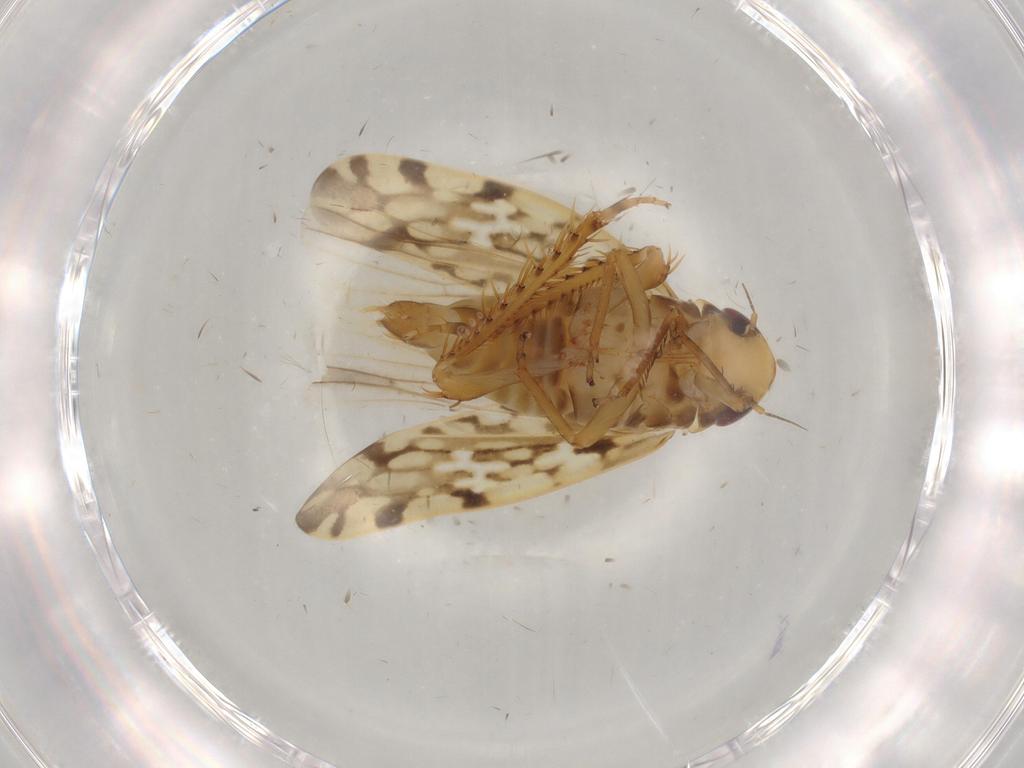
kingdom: Animalia
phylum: Arthropoda
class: Insecta
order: Hemiptera
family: Cicadellidae
